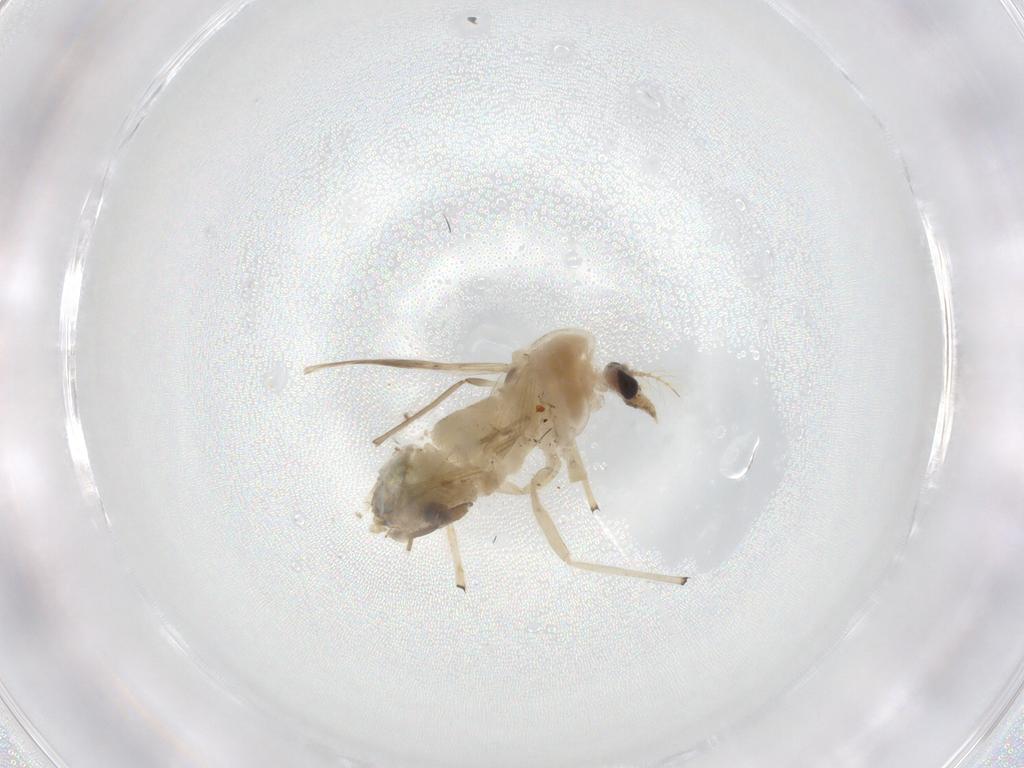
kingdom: Animalia
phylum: Arthropoda
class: Insecta
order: Diptera
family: Chironomidae
